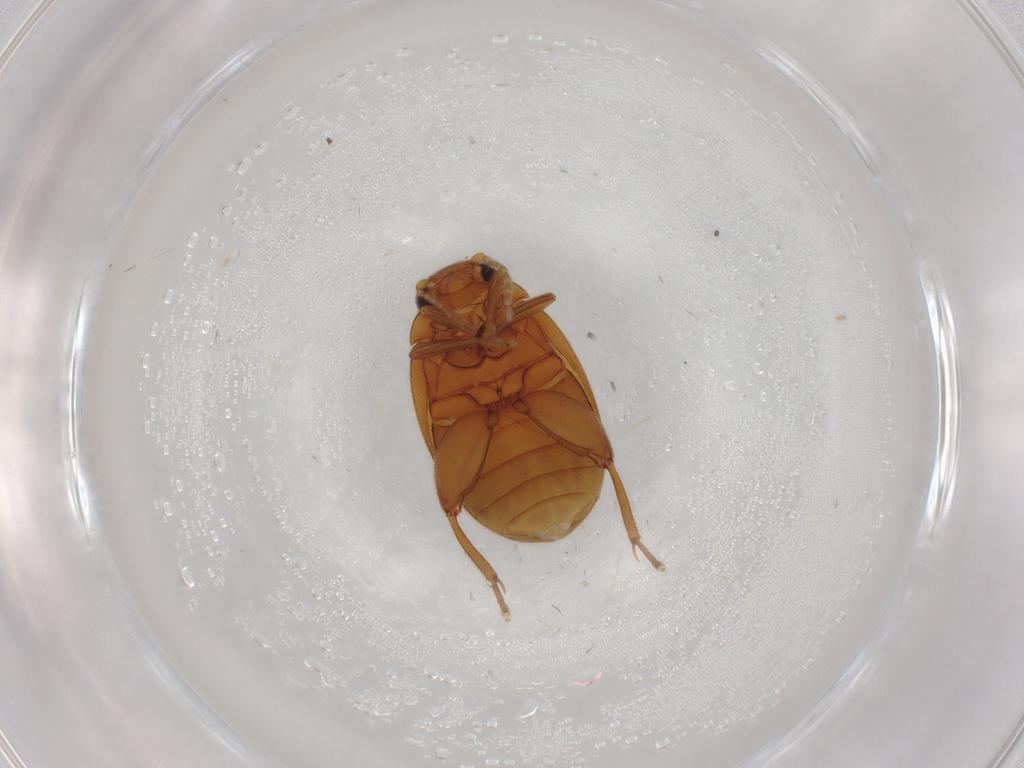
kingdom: Animalia
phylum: Arthropoda
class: Insecta
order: Coleoptera
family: Scirtidae
